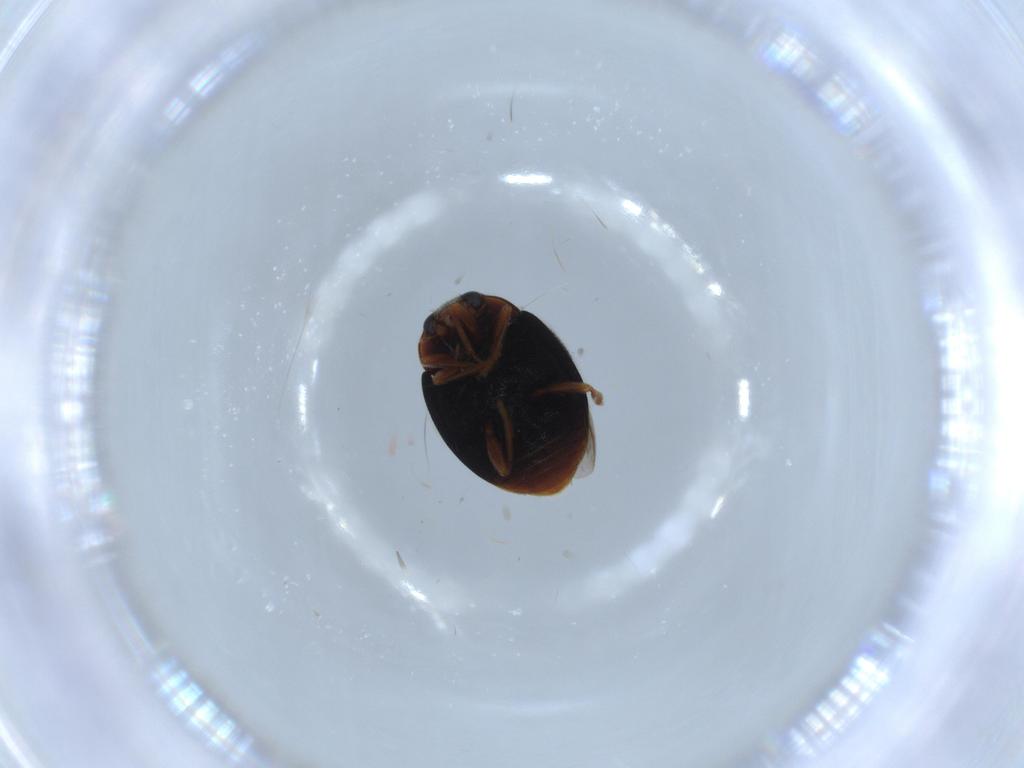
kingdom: Animalia
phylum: Arthropoda
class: Insecta
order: Coleoptera
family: Coccinellidae
